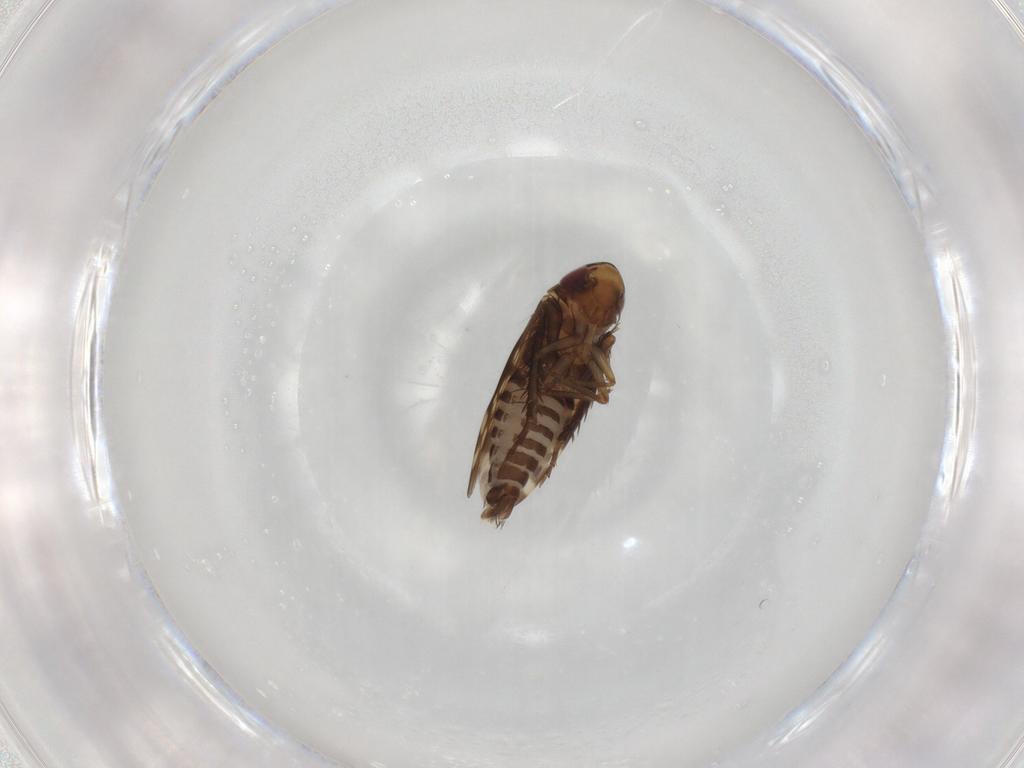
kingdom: Animalia
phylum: Arthropoda
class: Insecta
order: Hemiptera
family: Cicadellidae
